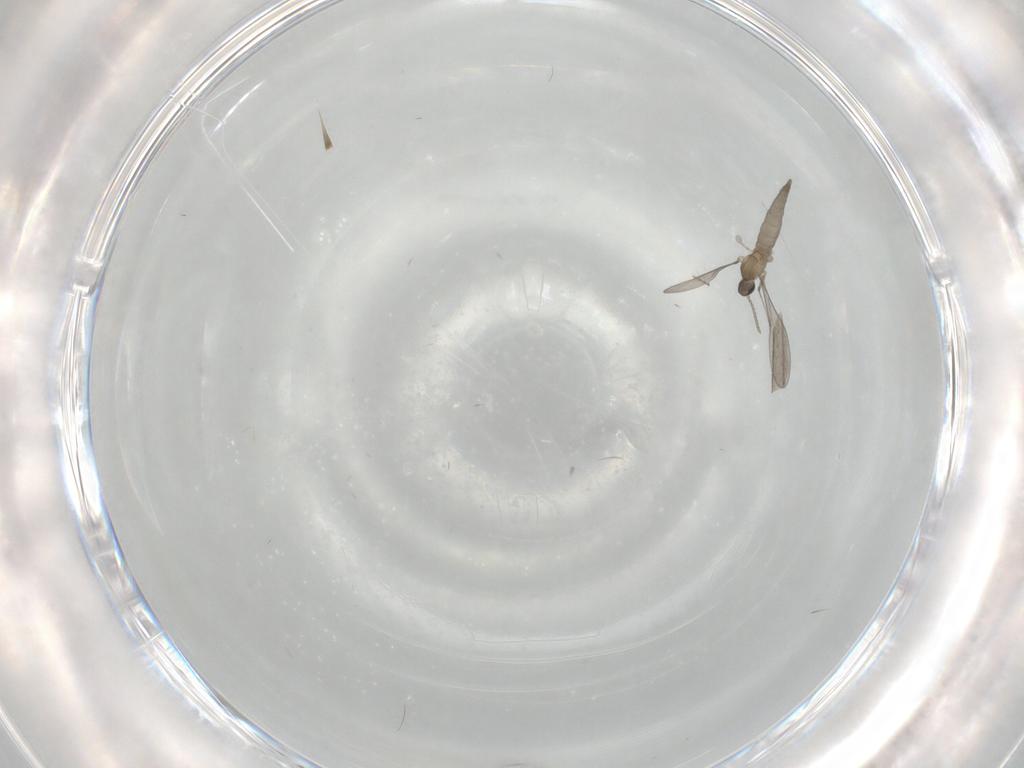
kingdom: Animalia
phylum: Arthropoda
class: Insecta
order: Diptera
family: Cecidomyiidae
